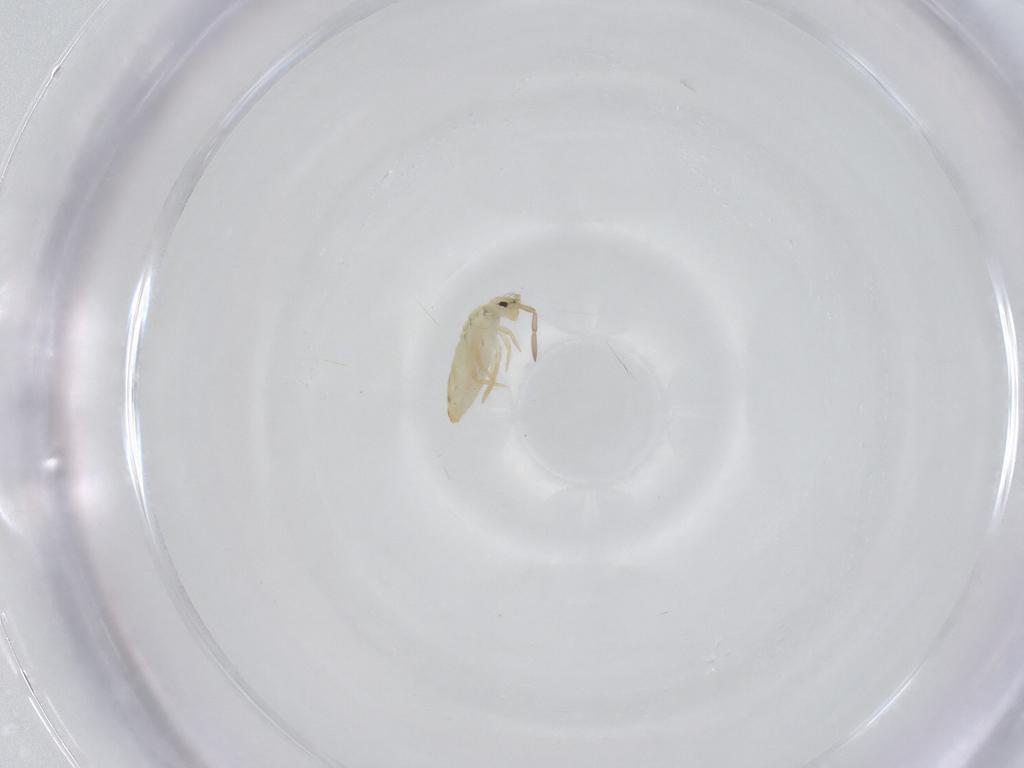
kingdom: Animalia
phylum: Arthropoda
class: Collembola
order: Entomobryomorpha
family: Entomobryidae
